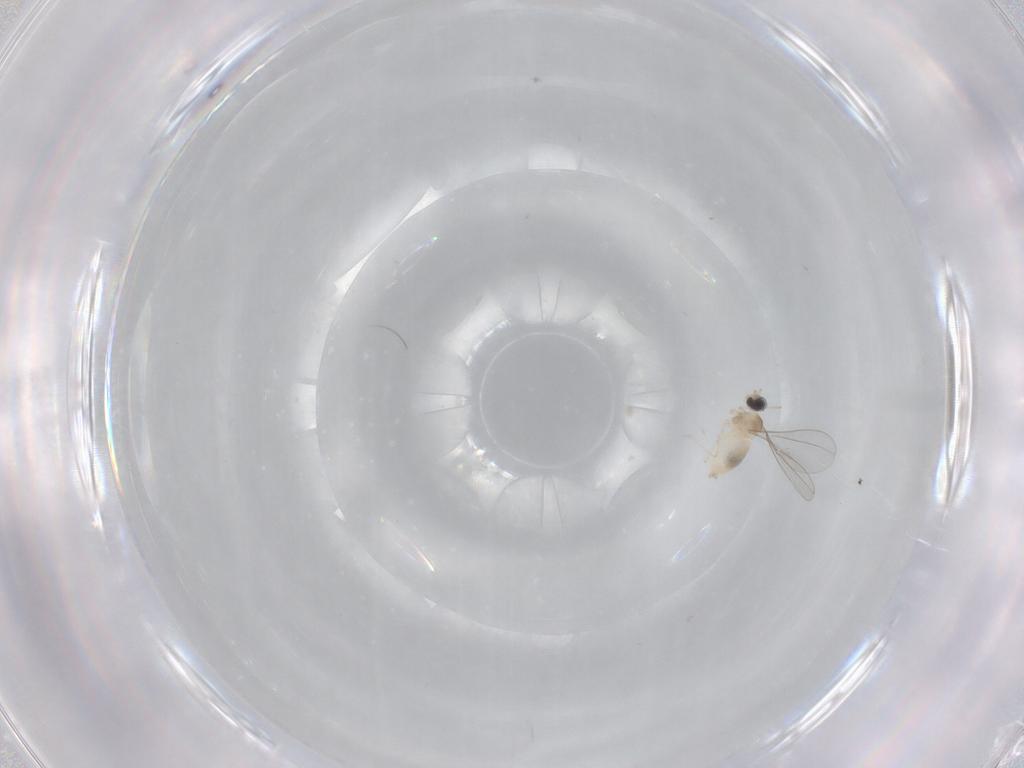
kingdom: Animalia
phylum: Arthropoda
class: Insecta
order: Diptera
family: Cecidomyiidae
